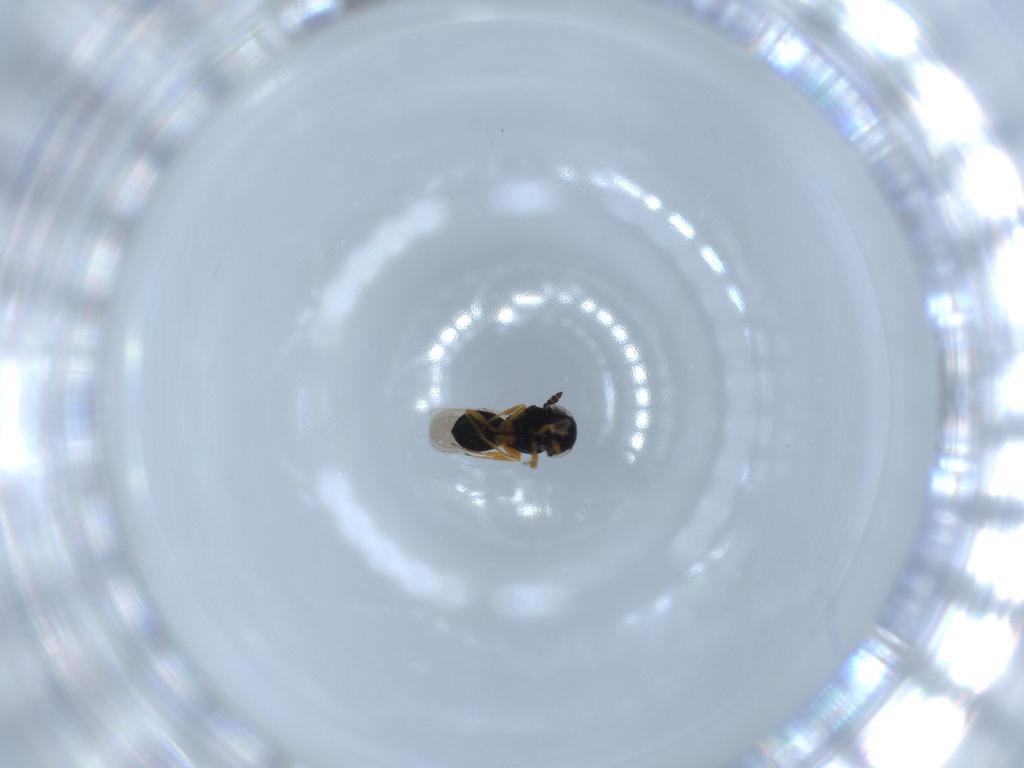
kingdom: Animalia
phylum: Arthropoda
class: Insecta
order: Hymenoptera
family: Scelionidae
